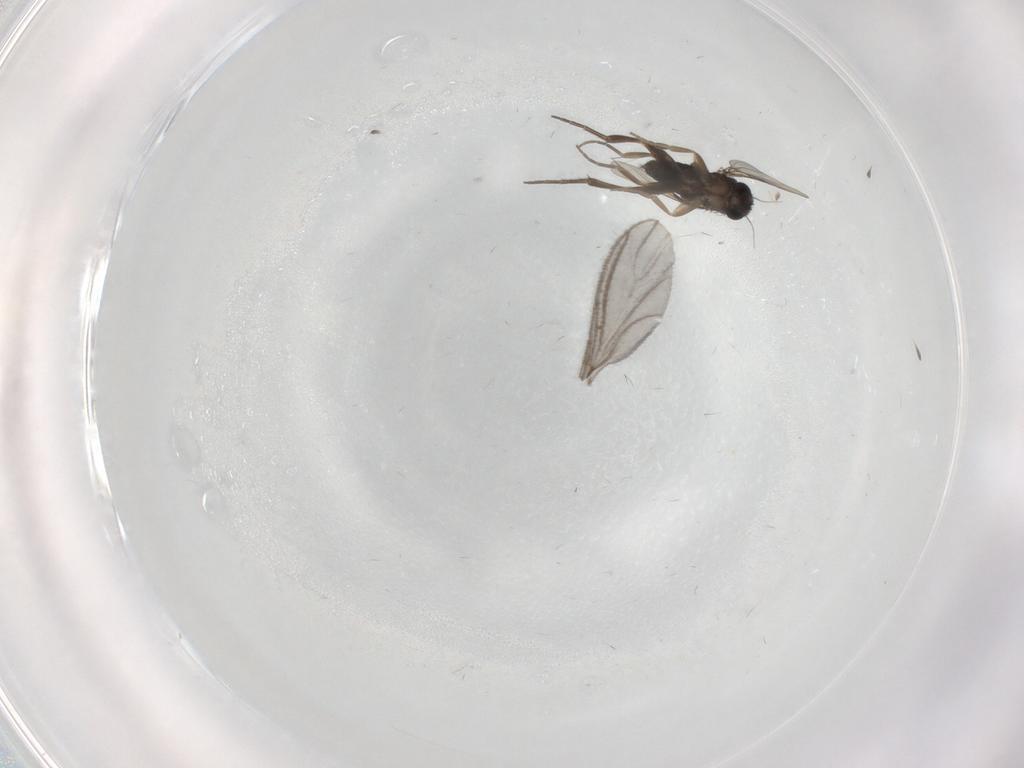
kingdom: Animalia
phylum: Arthropoda
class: Insecta
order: Diptera
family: Phoridae
